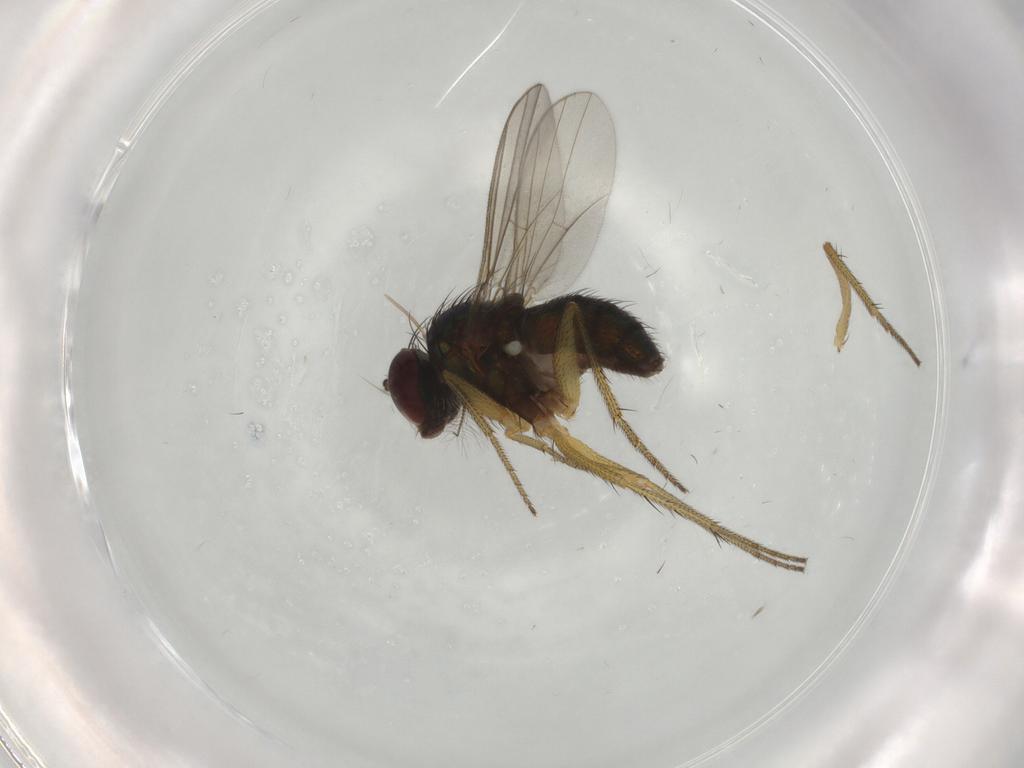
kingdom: Animalia
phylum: Arthropoda
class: Insecta
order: Diptera
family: Dolichopodidae
